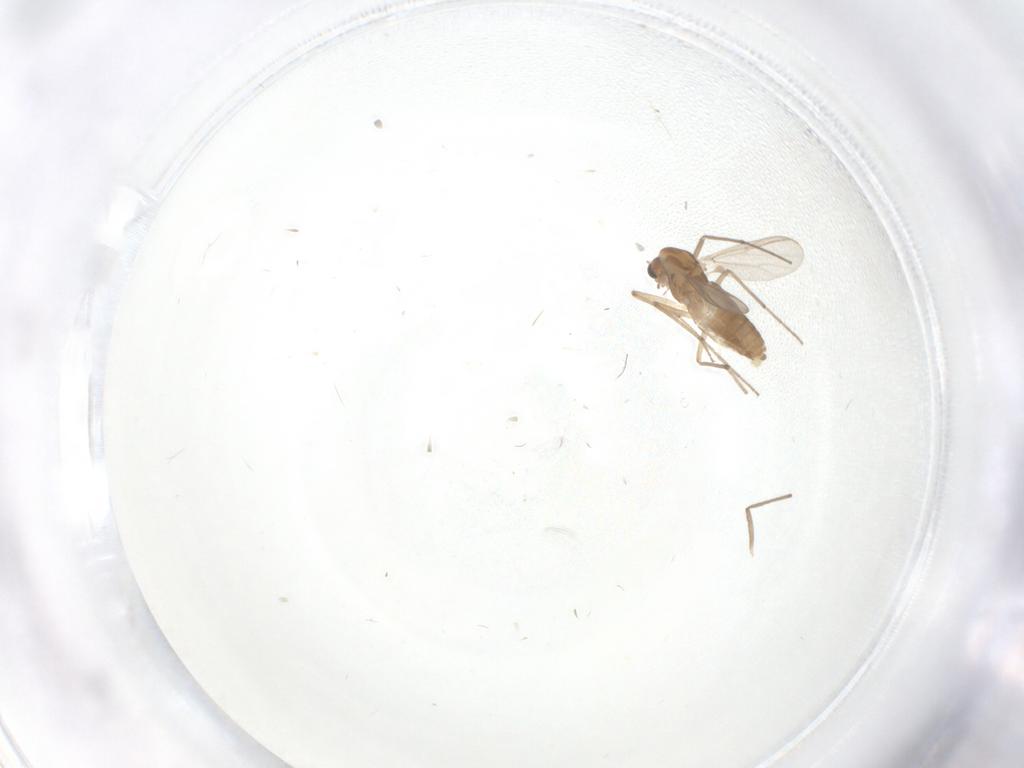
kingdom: Animalia
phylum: Arthropoda
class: Insecta
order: Diptera
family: Chironomidae
